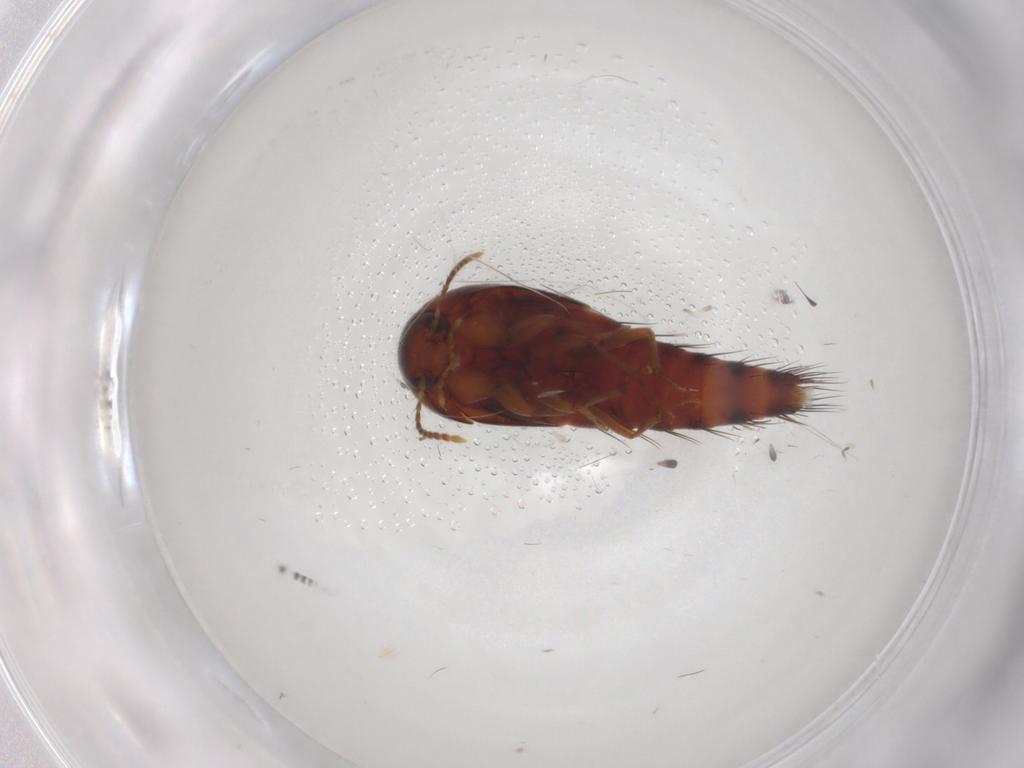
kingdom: Animalia
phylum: Arthropoda
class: Insecta
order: Coleoptera
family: Staphylinidae
